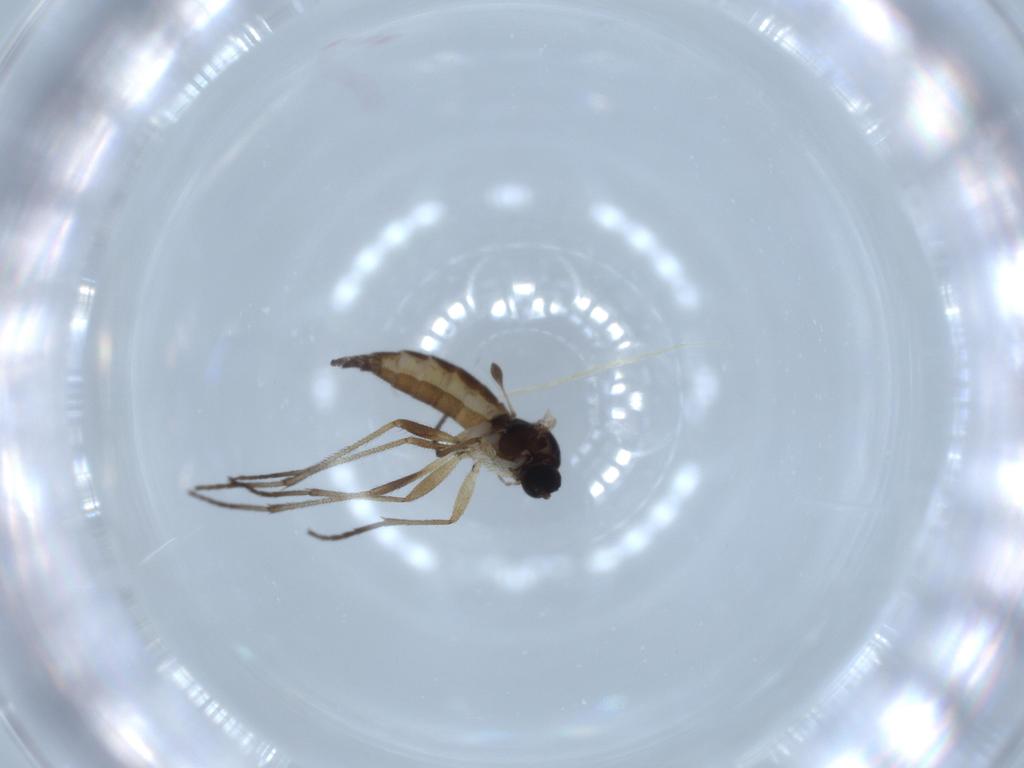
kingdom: Animalia
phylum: Arthropoda
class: Insecta
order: Diptera
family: Sciaridae
